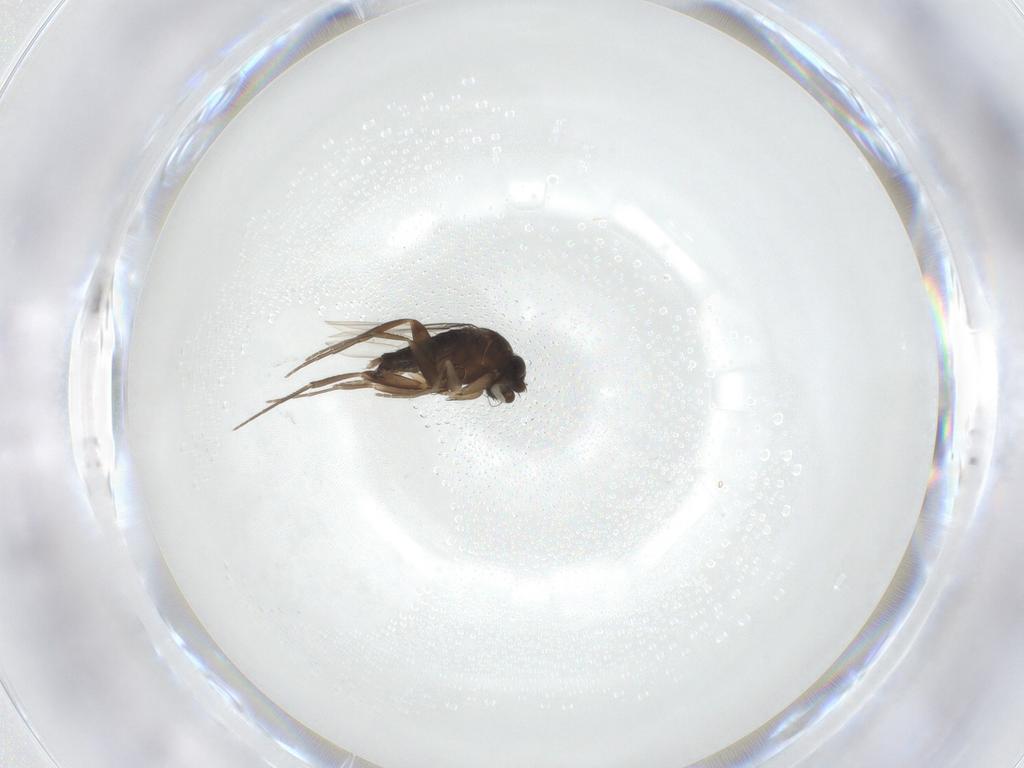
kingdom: Animalia
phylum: Arthropoda
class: Insecta
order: Diptera
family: Phoridae
